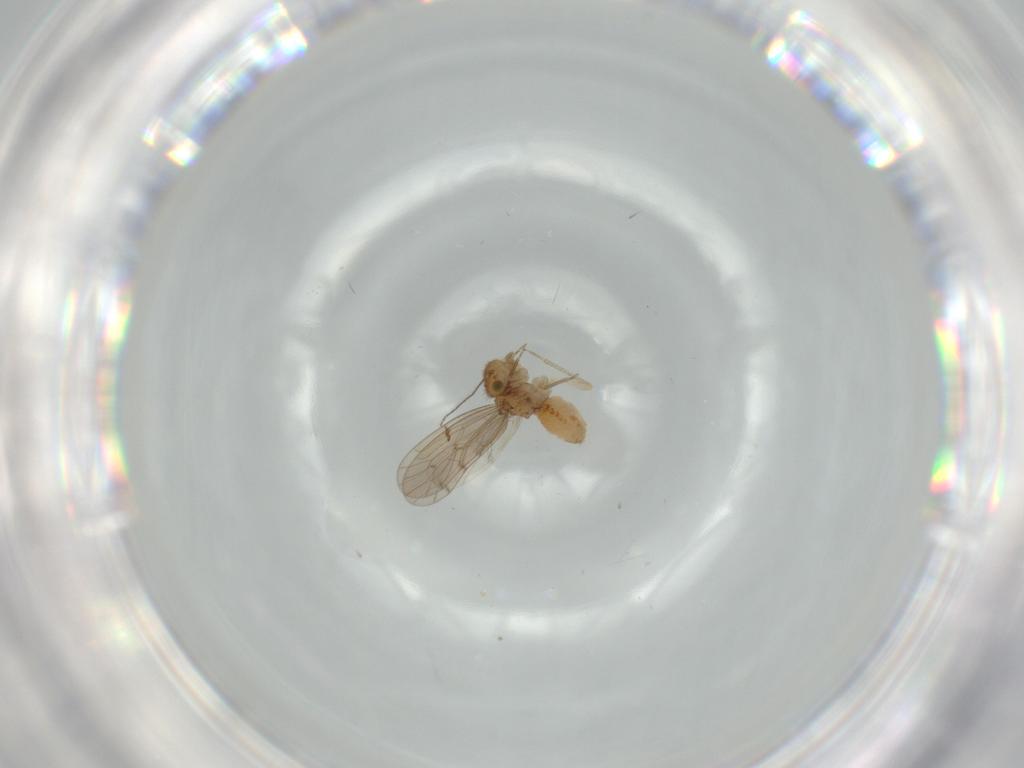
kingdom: Animalia
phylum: Arthropoda
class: Insecta
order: Psocodea
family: Ectopsocidae
